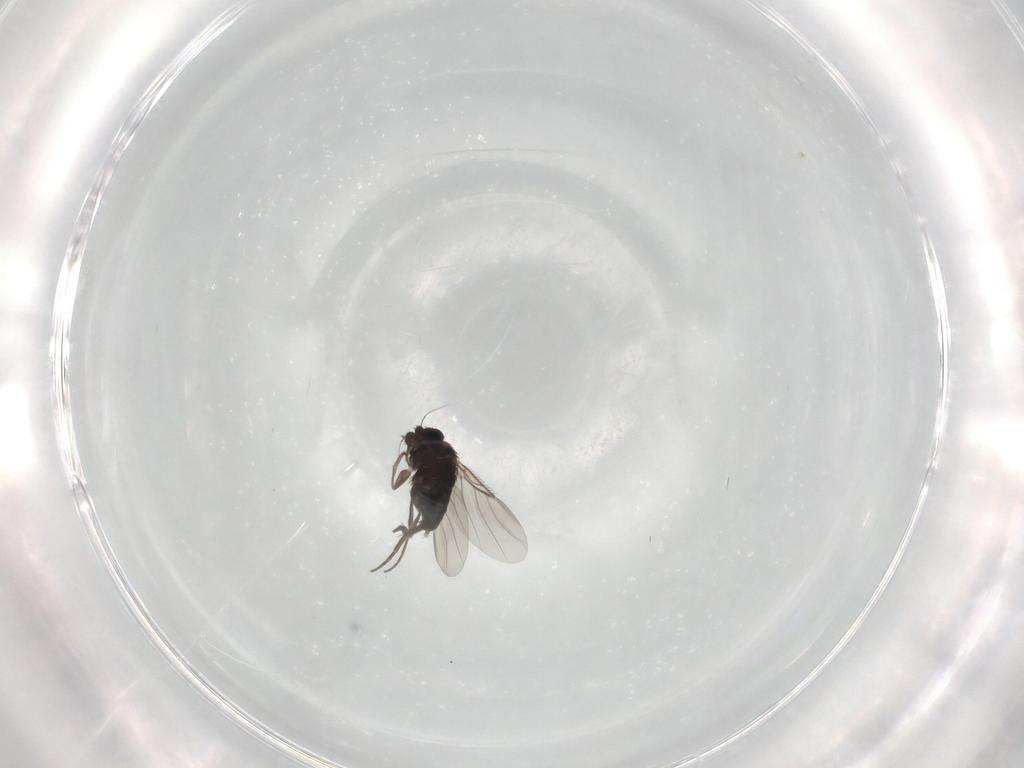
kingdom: Animalia
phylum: Arthropoda
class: Insecta
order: Diptera
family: Phoridae
